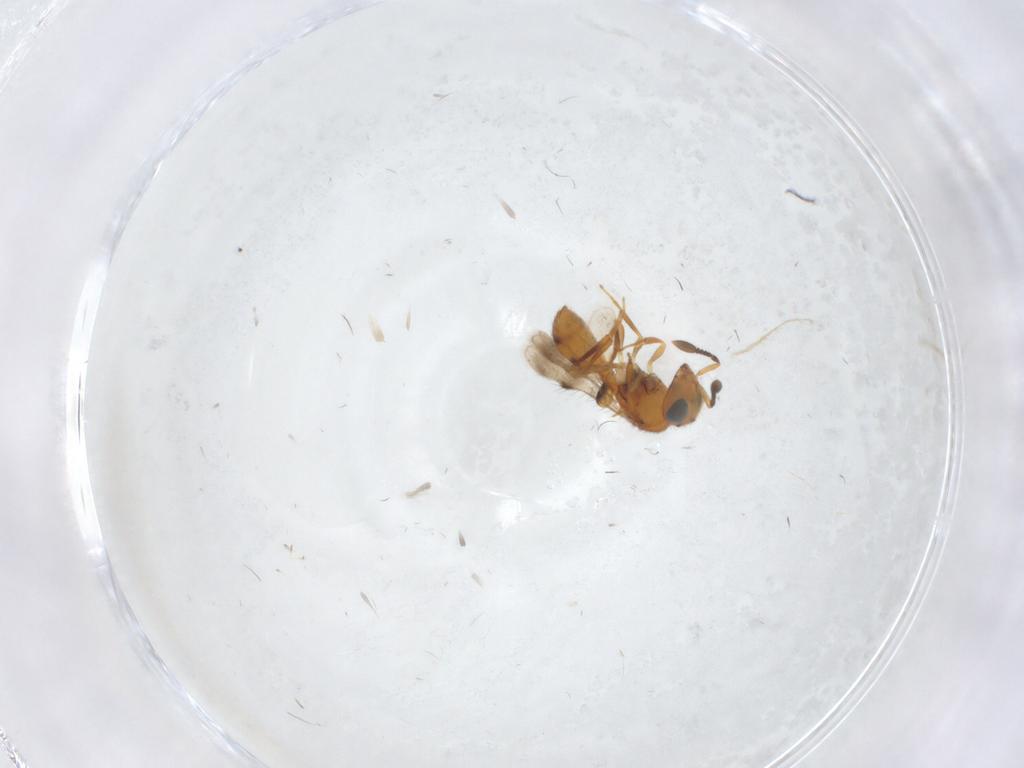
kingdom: Animalia
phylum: Arthropoda
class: Insecta
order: Hymenoptera
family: Scelionidae
